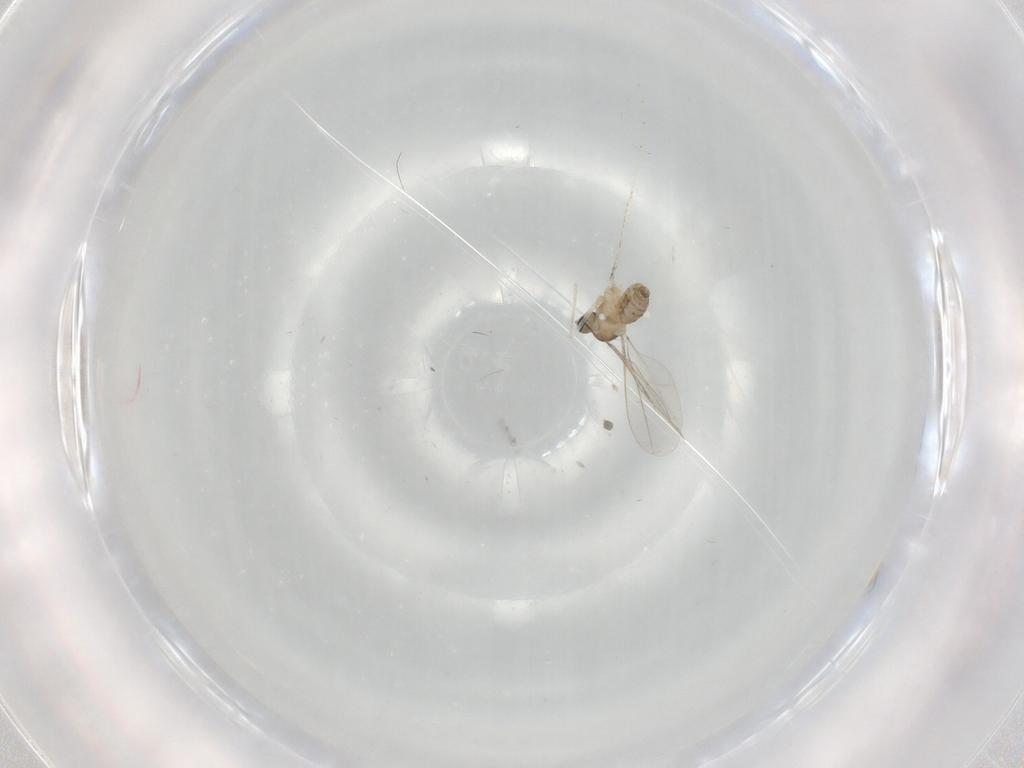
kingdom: Animalia
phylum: Arthropoda
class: Insecta
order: Diptera
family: Cecidomyiidae
